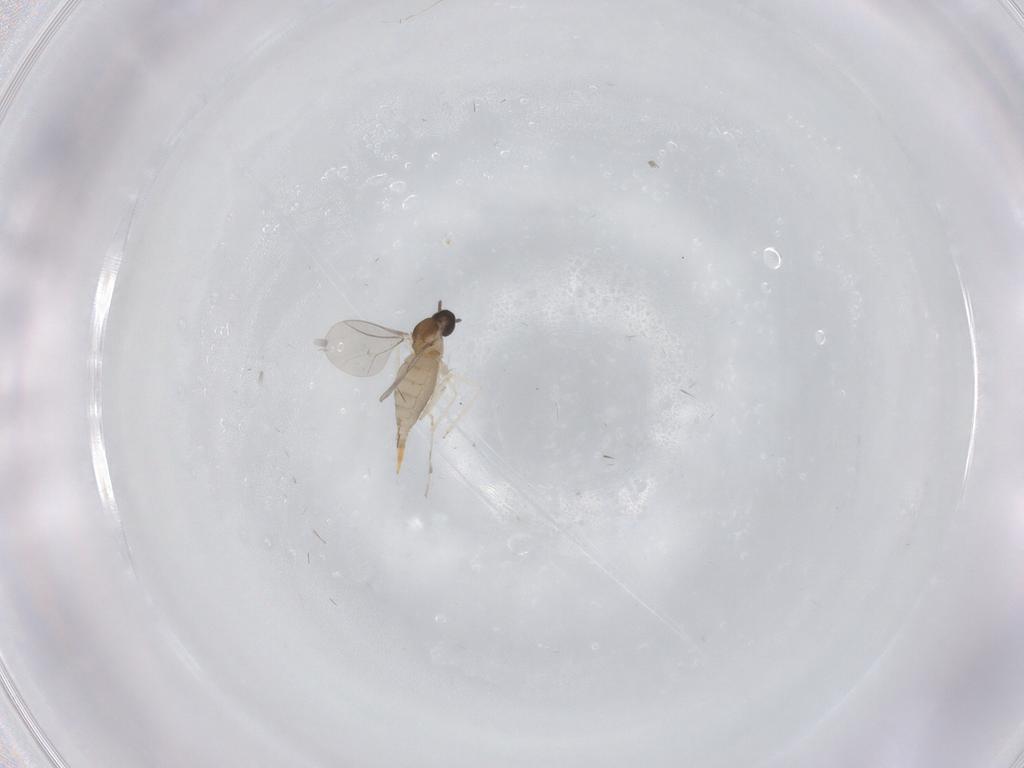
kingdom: Animalia
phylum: Arthropoda
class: Insecta
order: Diptera
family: Cecidomyiidae
